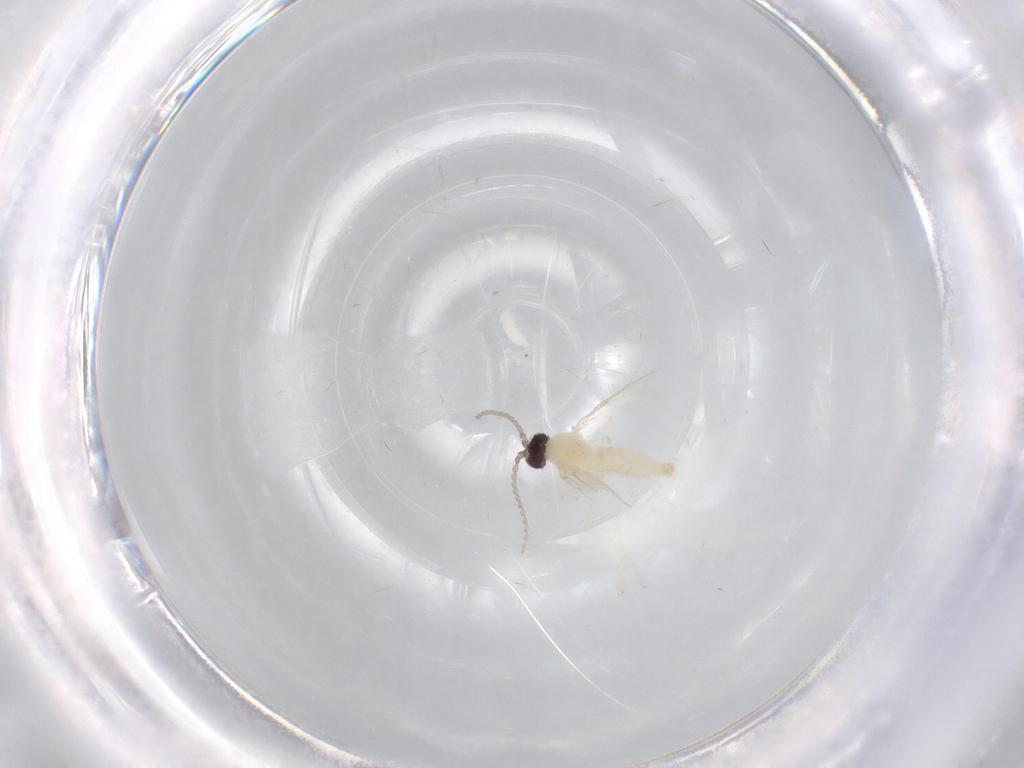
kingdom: Animalia
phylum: Arthropoda
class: Insecta
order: Diptera
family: Cecidomyiidae
